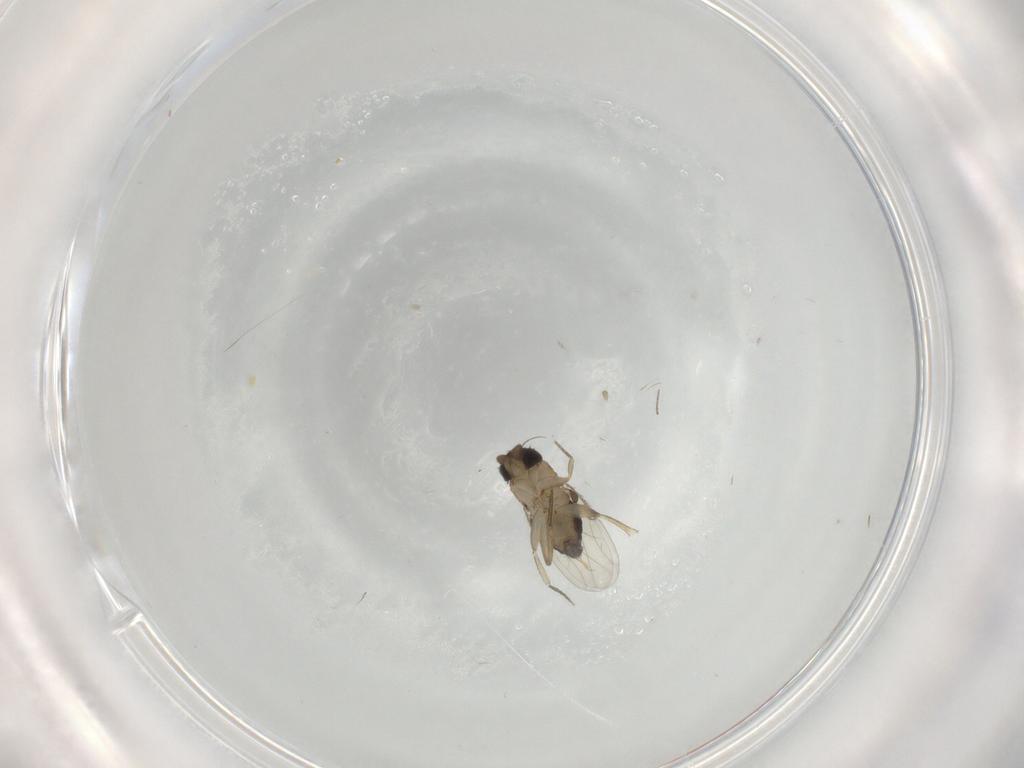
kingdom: Animalia
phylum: Arthropoda
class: Insecta
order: Diptera
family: Phoridae
